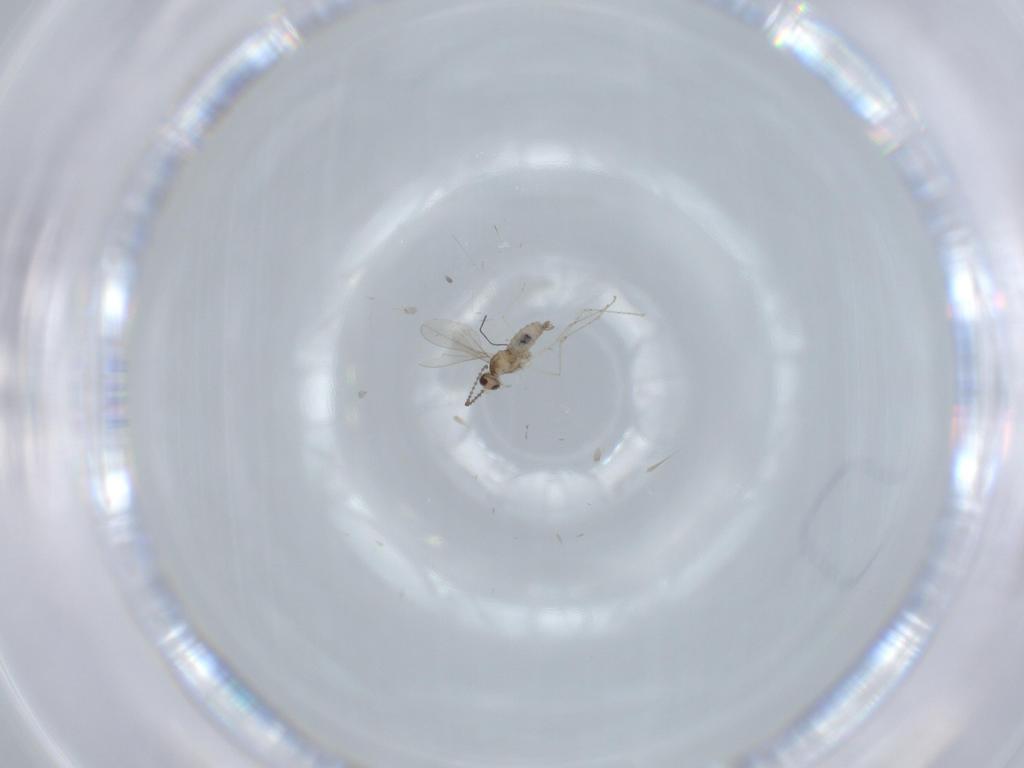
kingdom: Animalia
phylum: Arthropoda
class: Insecta
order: Diptera
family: Cecidomyiidae
